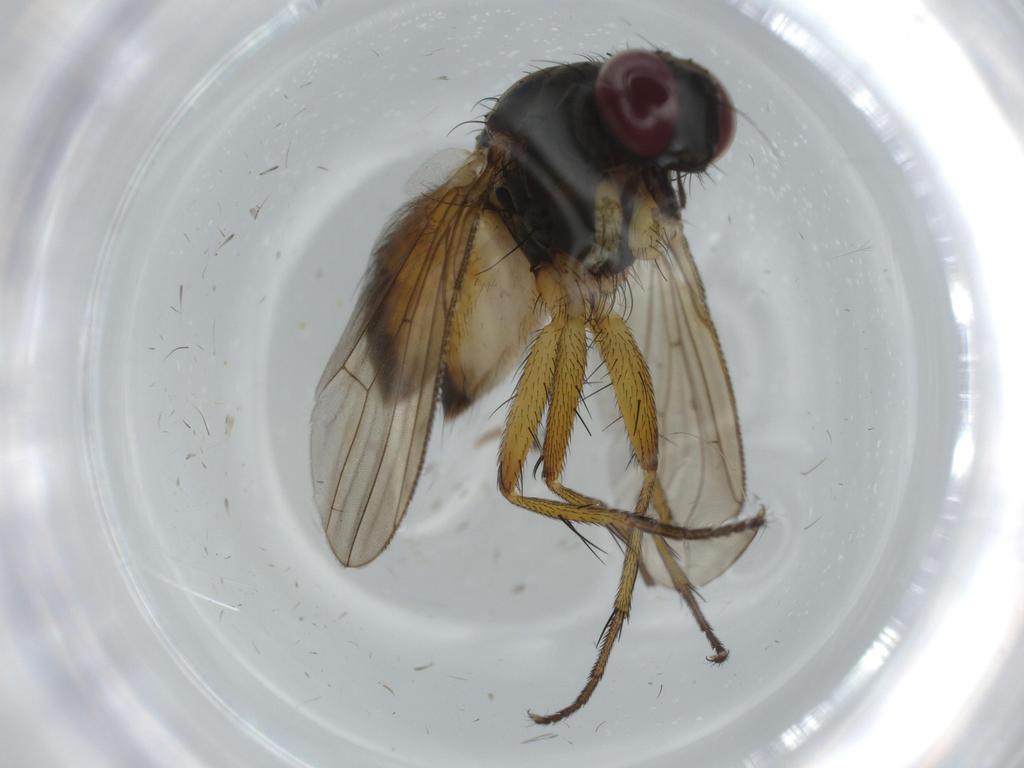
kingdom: Animalia
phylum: Arthropoda
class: Insecta
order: Diptera
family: Muscidae
